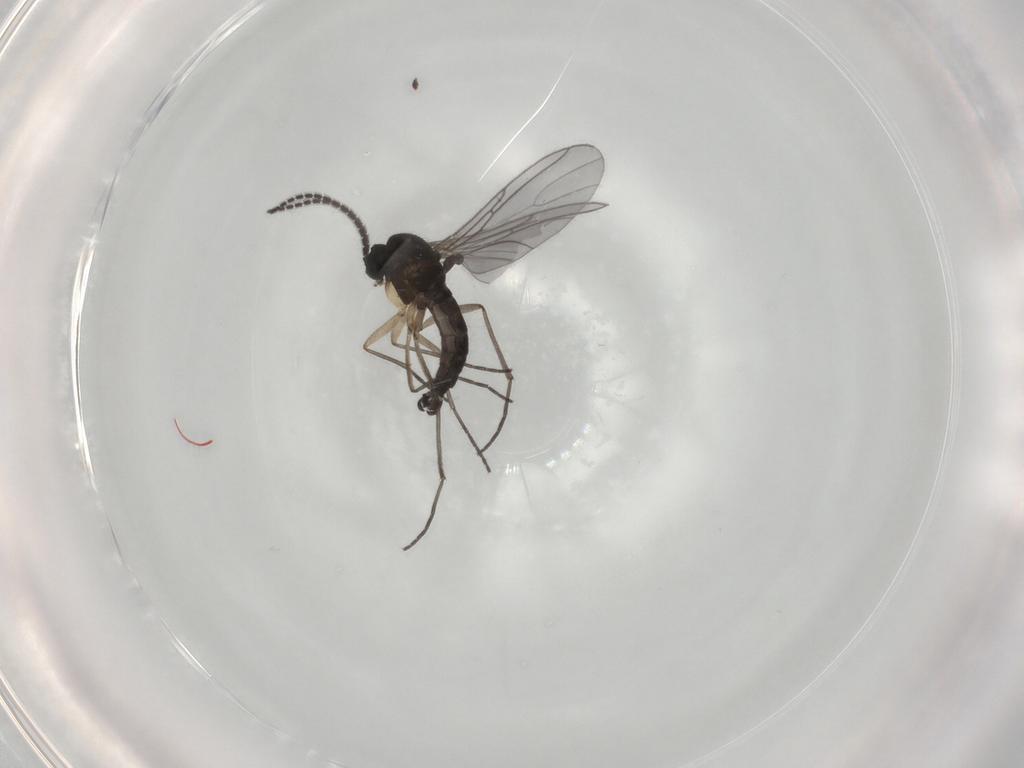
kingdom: Animalia
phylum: Arthropoda
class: Insecta
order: Diptera
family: Sciaridae
